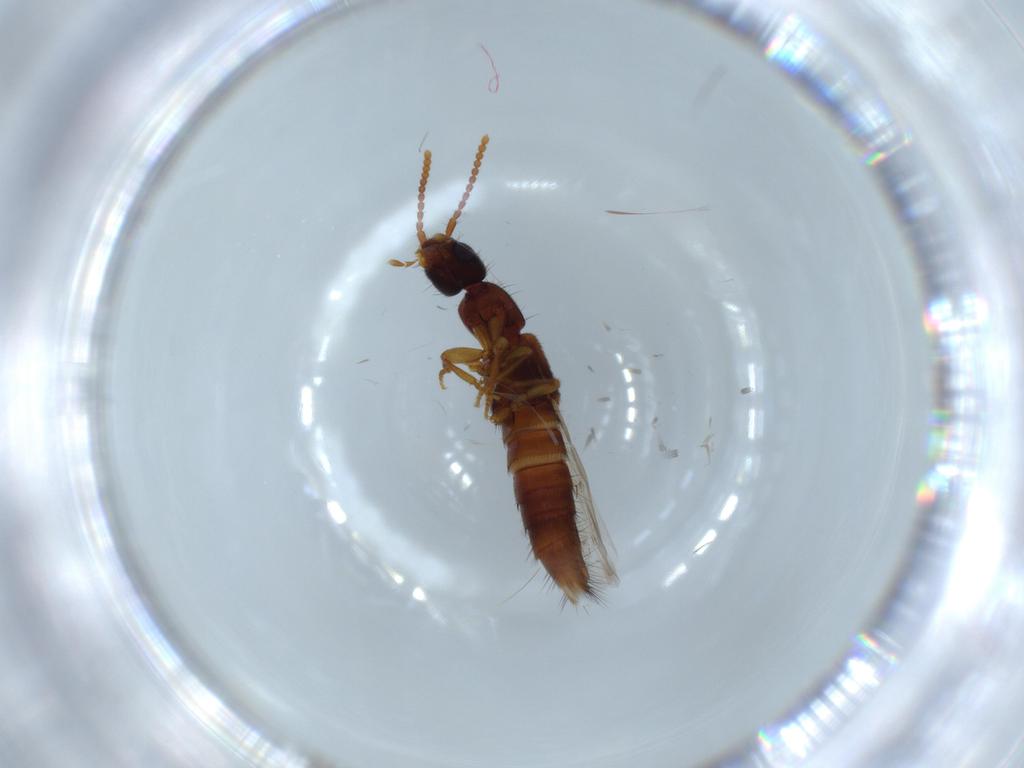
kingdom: Animalia
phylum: Arthropoda
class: Insecta
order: Coleoptera
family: Staphylinidae
